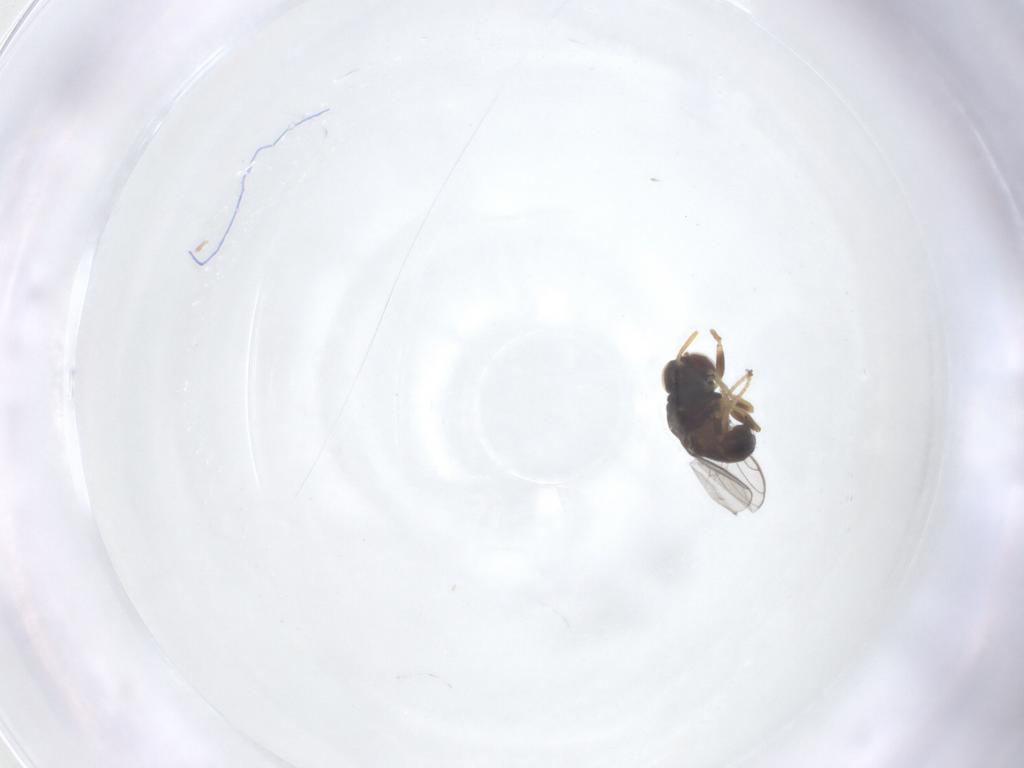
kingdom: Animalia
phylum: Arthropoda
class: Insecta
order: Diptera
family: Chloropidae
